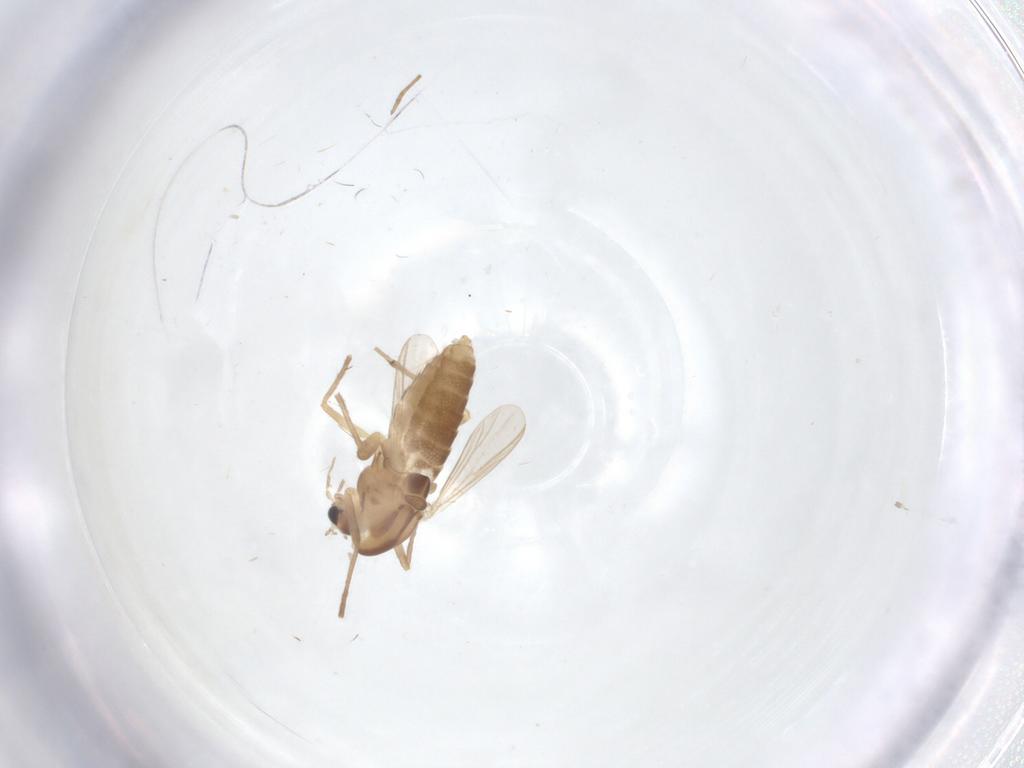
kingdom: Animalia
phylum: Arthropoda
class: Insecta
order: Diptera
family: Chironomidae
